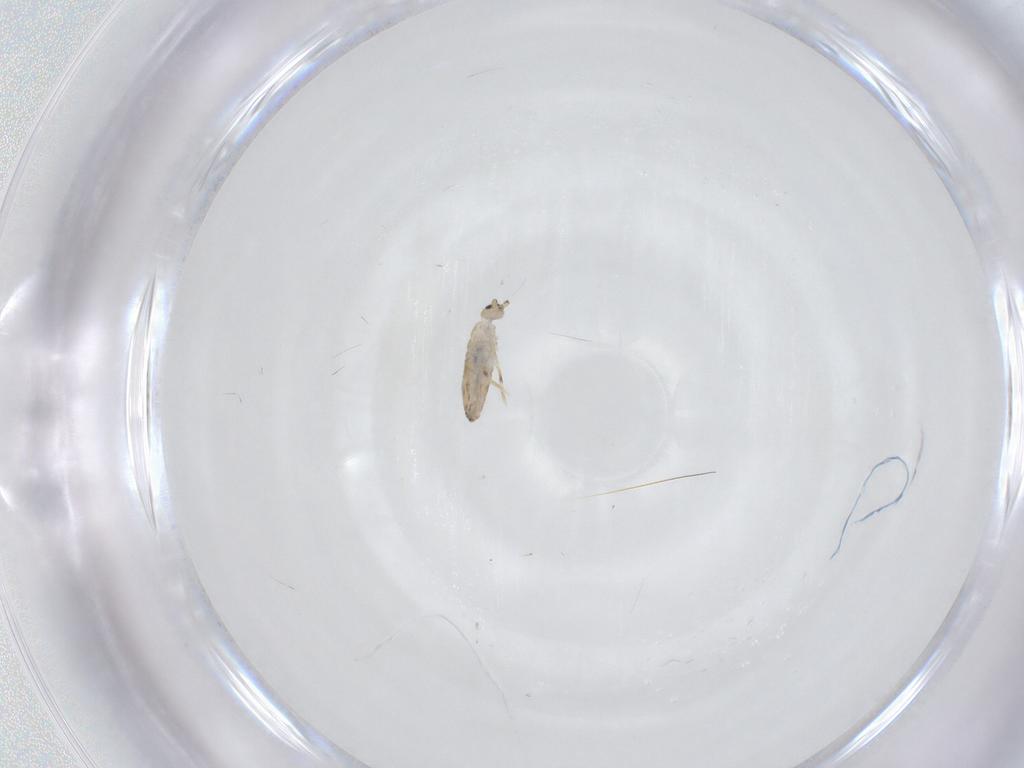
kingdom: Animalia
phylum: Arthropoda
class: Collembola
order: Entomobryomorpha
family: Entomobryidae
